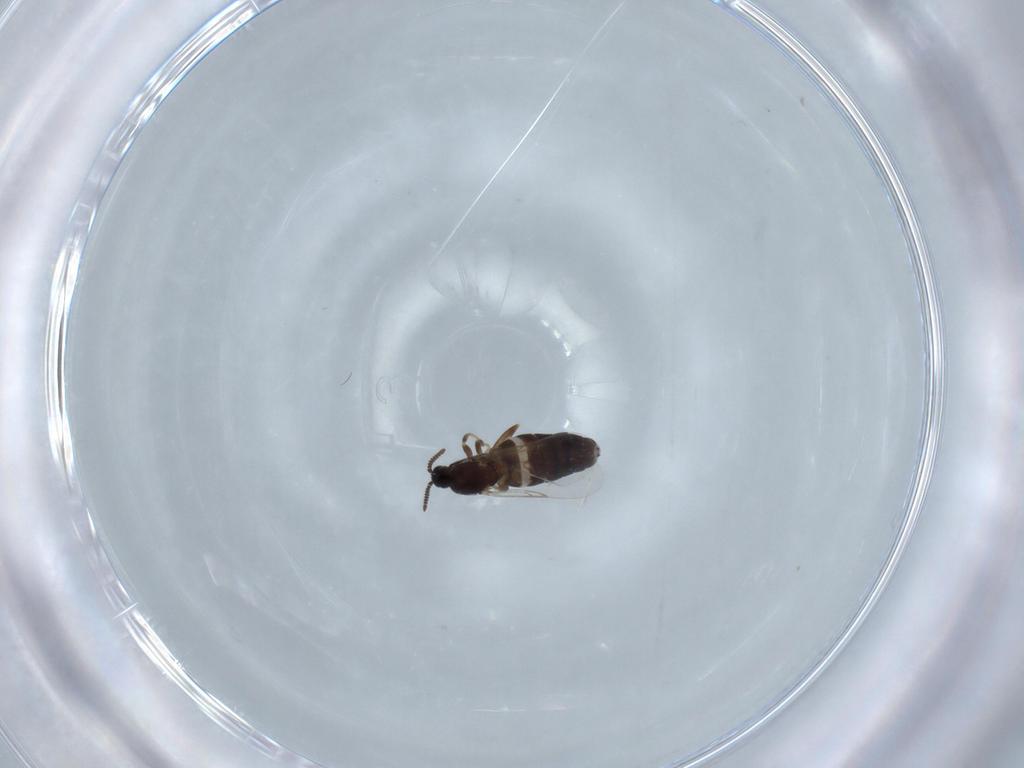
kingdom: Animalia
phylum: Arthropoda
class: Insecta
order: Diptera
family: Scatopsidae
